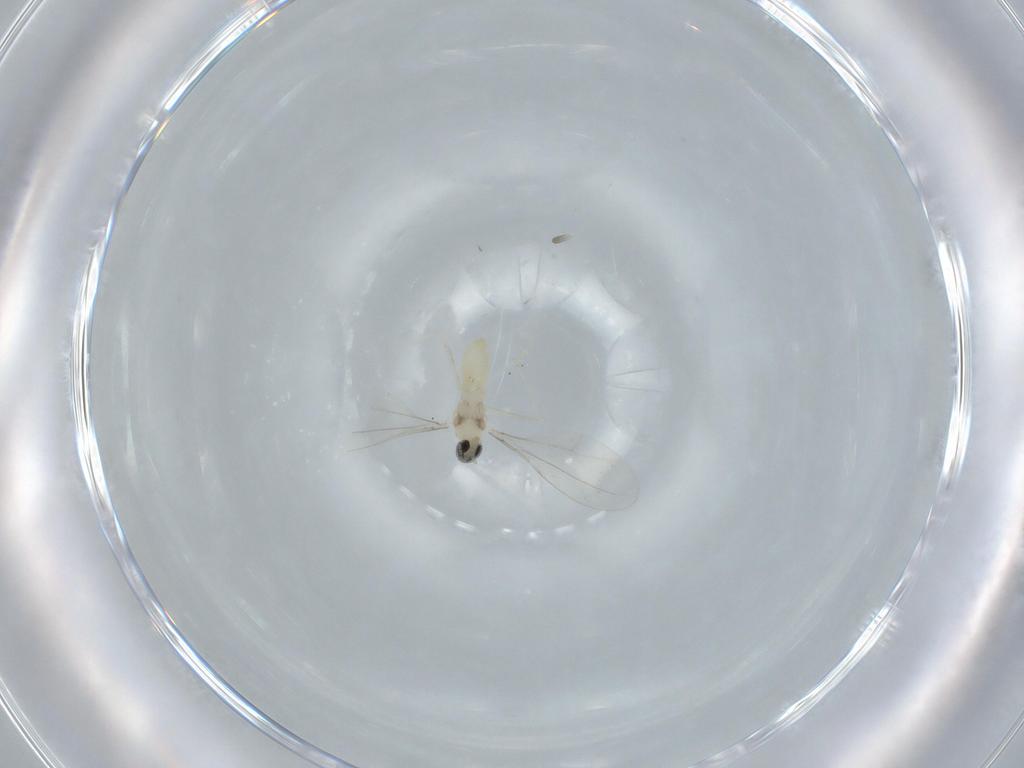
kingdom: Animalia
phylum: Arthropoda
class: Insecta
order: Diptera
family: Cecidomyiidae
